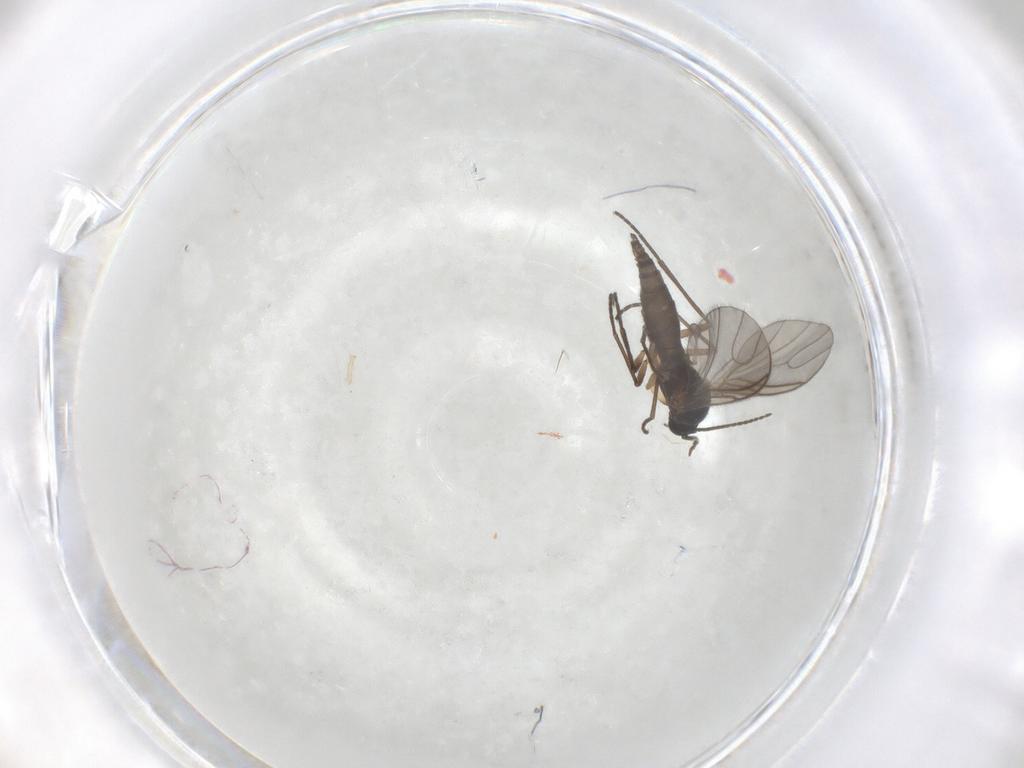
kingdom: Animalia
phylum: Arthropoda
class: Insecta
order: Diptera
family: Sciaridae
